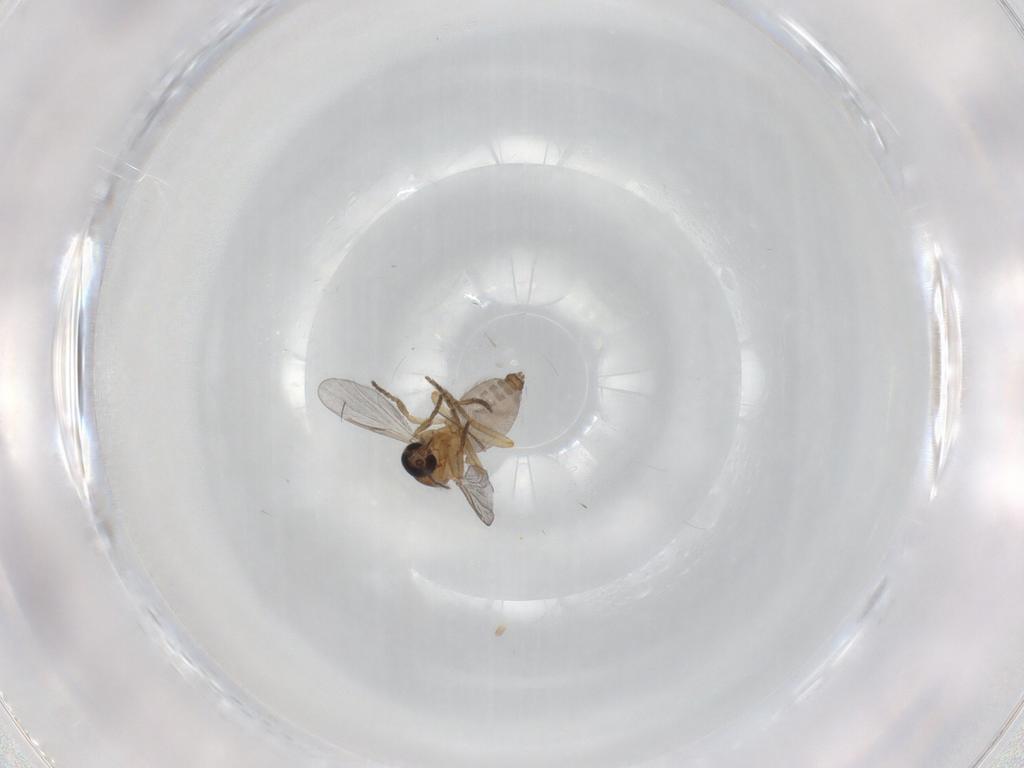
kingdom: Animalia
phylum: Arthropoda
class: Insecta
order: Diptera
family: Ceratopogonidae
